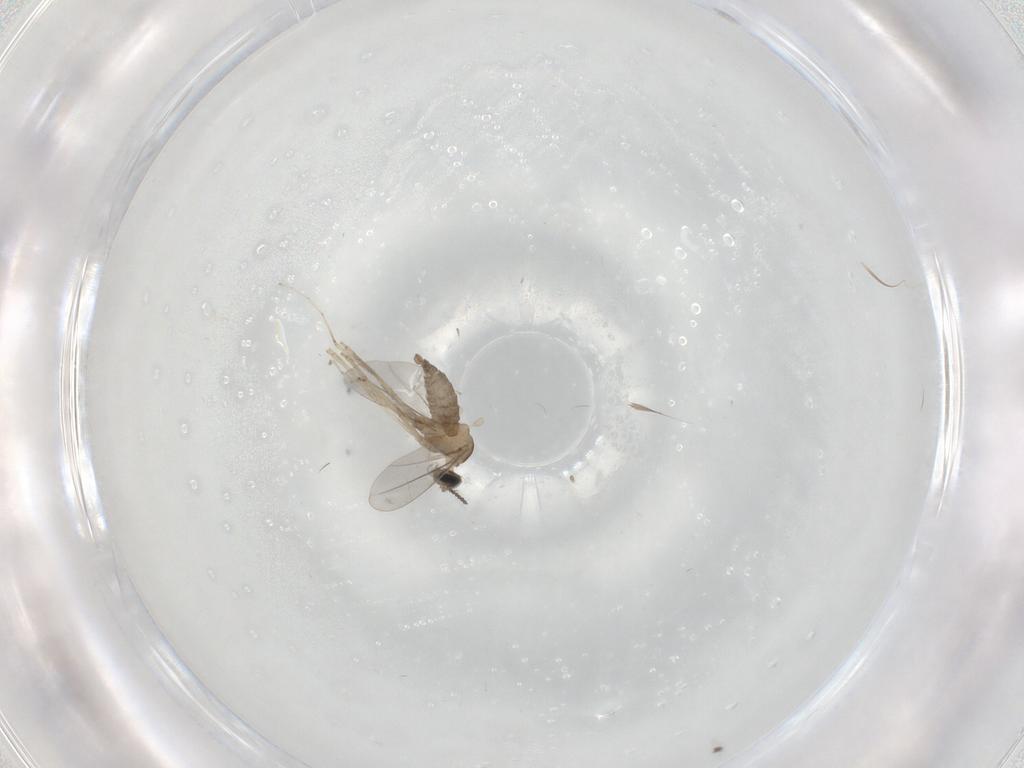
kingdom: Animalia
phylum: Arthropoda
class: Insecta
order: Diptera
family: Cecidomyiidae
